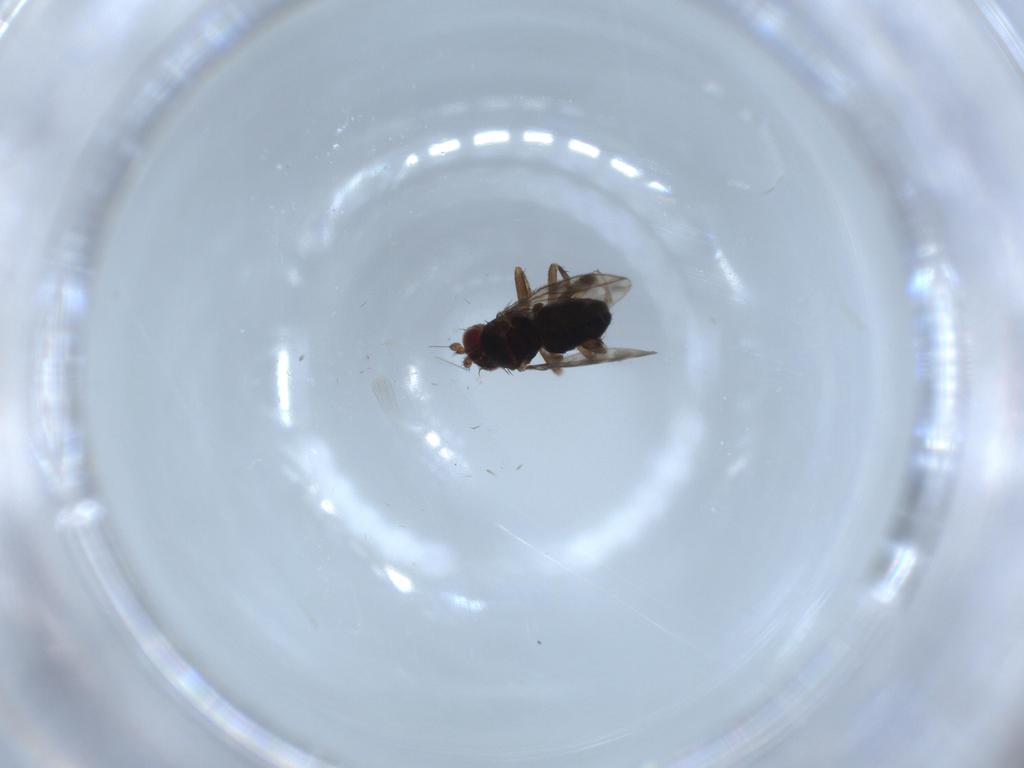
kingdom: Animalia
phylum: Arthropoda
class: Insecta
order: Diptera
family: Sphaeroceridae
